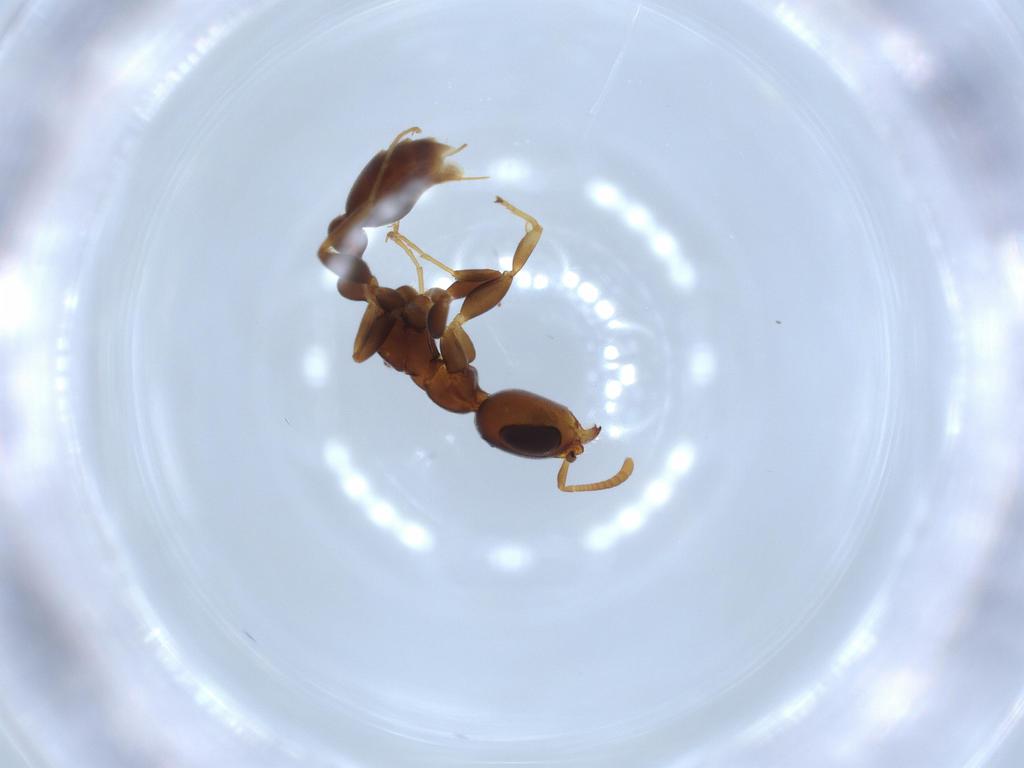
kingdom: Animalia
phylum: Arthropoda
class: Insecta
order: Hymenoptera
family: Formicidae
